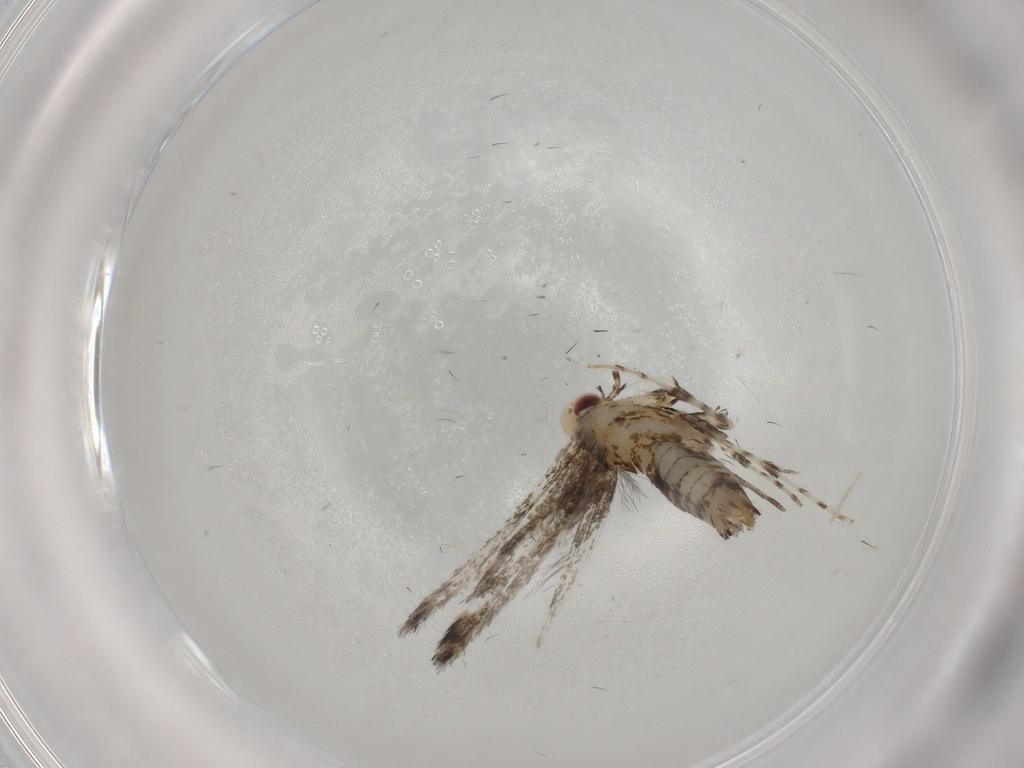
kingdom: Animalia
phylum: Arthropoda
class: Insecta
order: Lepidoptera
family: Gracillariidae
